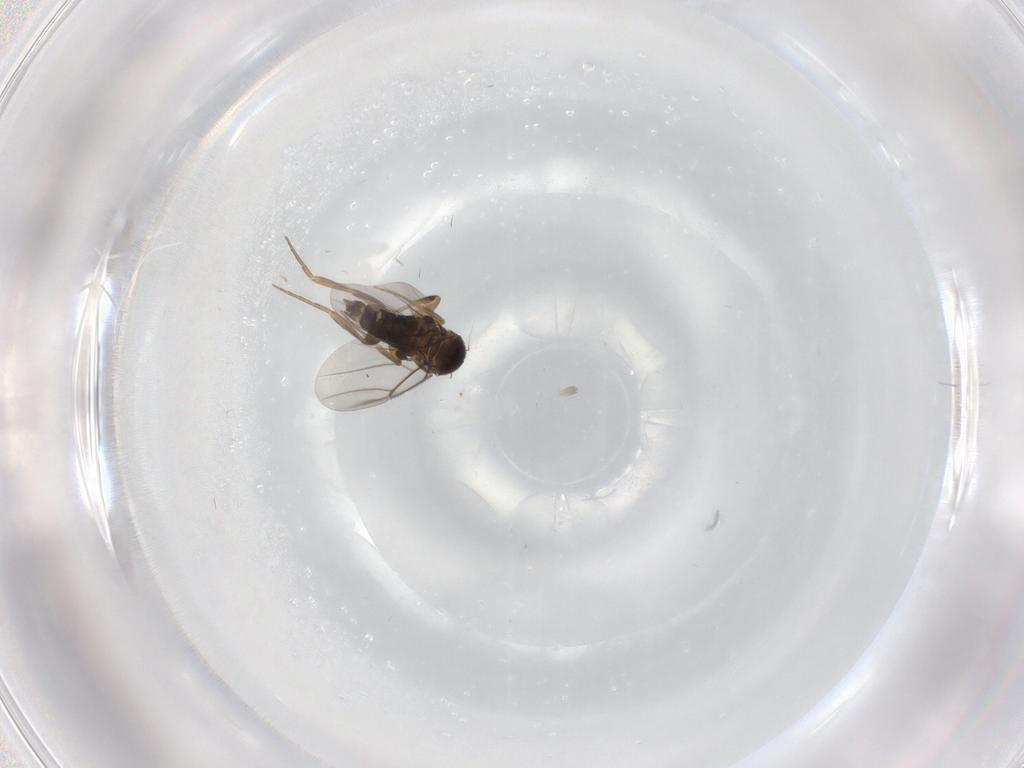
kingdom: Animalia
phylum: Arthropoda
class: Insecta
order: Diptera
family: Phoridae
